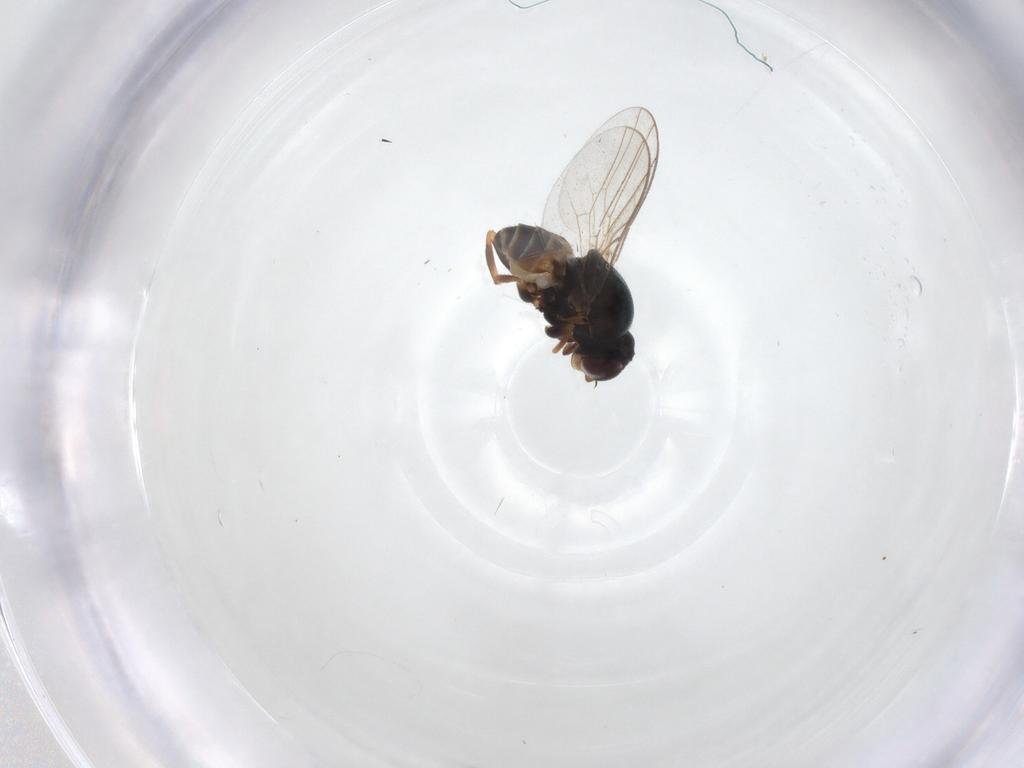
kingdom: Animalia
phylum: Arthropoda
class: Insecta
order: Diptera
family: Chloropidae
